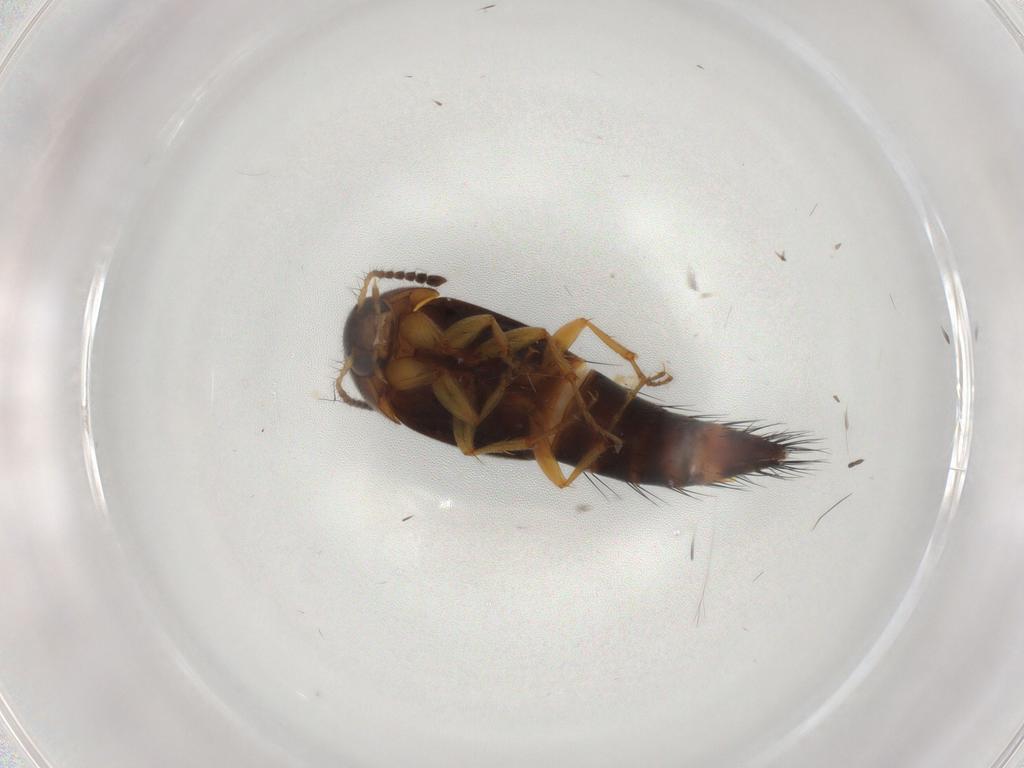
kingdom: Animalia
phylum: Arthropoda
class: Insecta
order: Coleoptera
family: Staphylinidae
